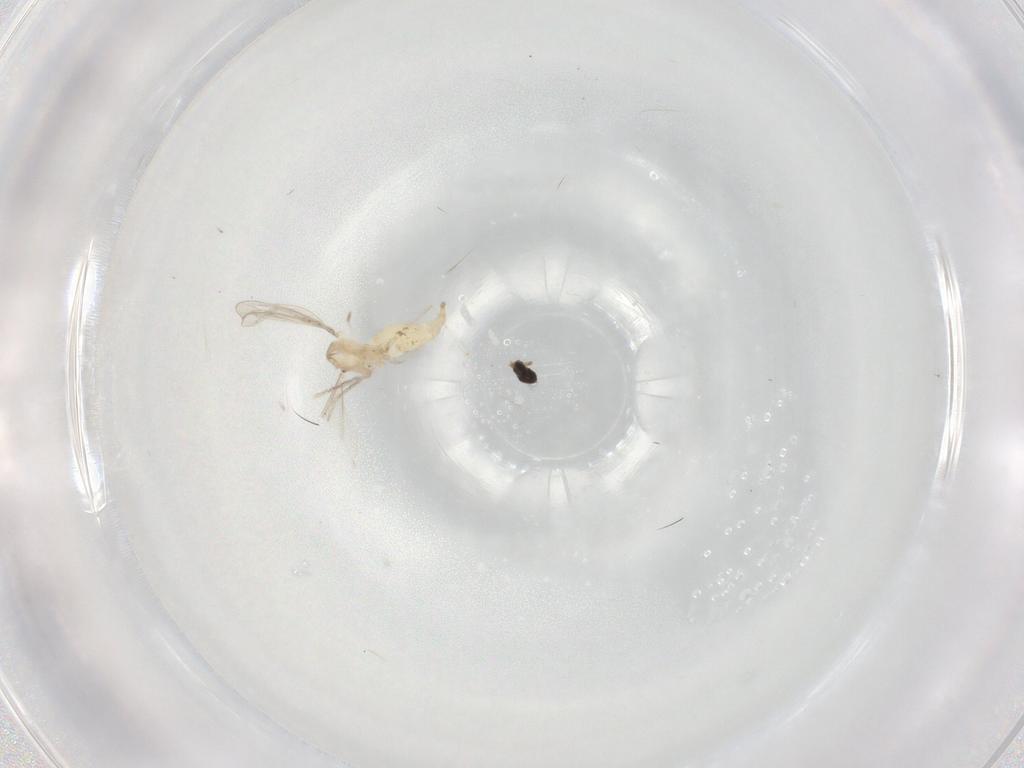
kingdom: Animalia
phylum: Arthropoda
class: Insecta
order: Diptera
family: Cecidomyiidae
